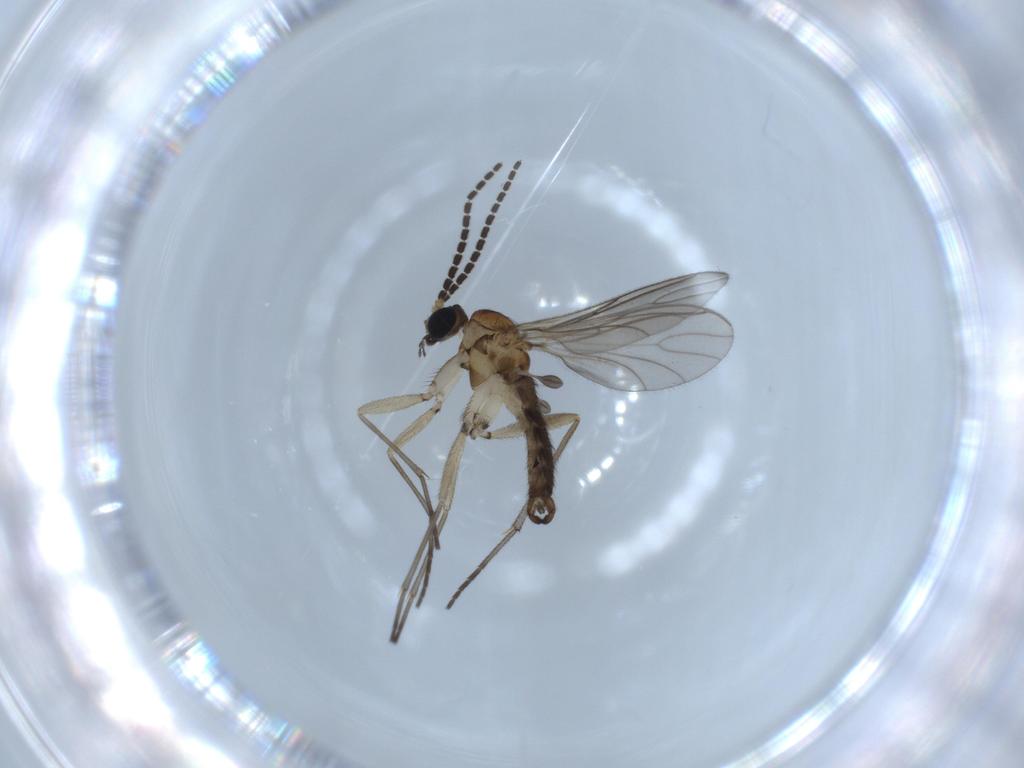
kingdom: Animalia
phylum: Arthropoda
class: Insecta
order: Diptera
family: Sciaridae
